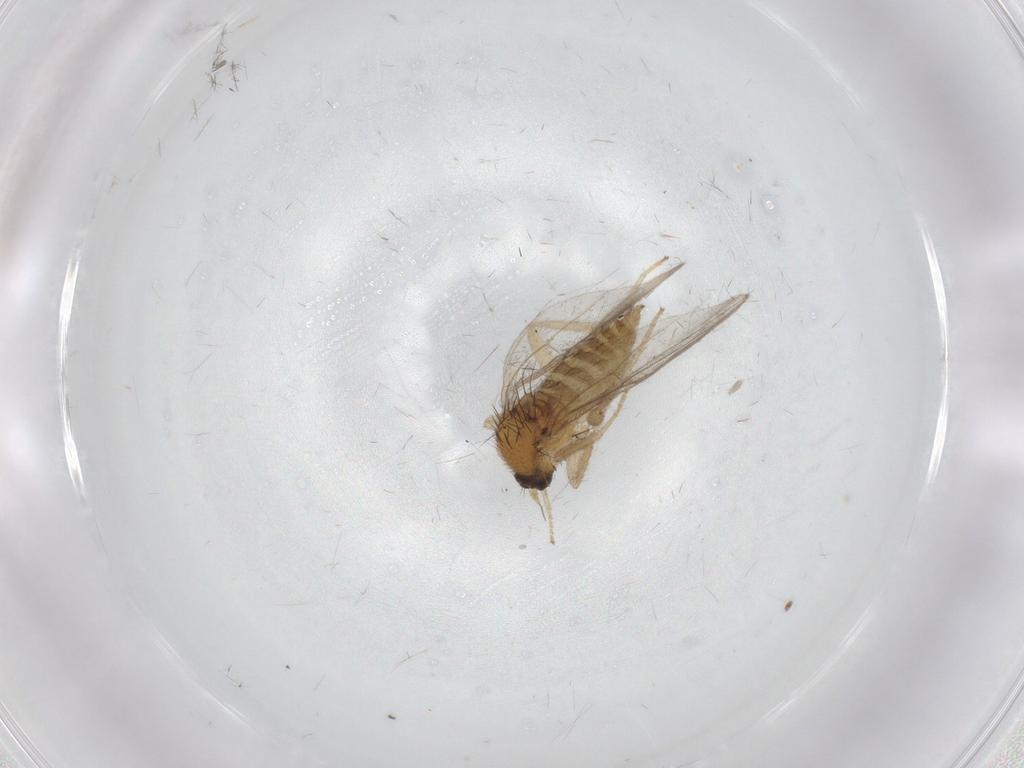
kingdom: Animalia
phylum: Arthropoda
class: Insecta
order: Diptera
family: Hybotidae
